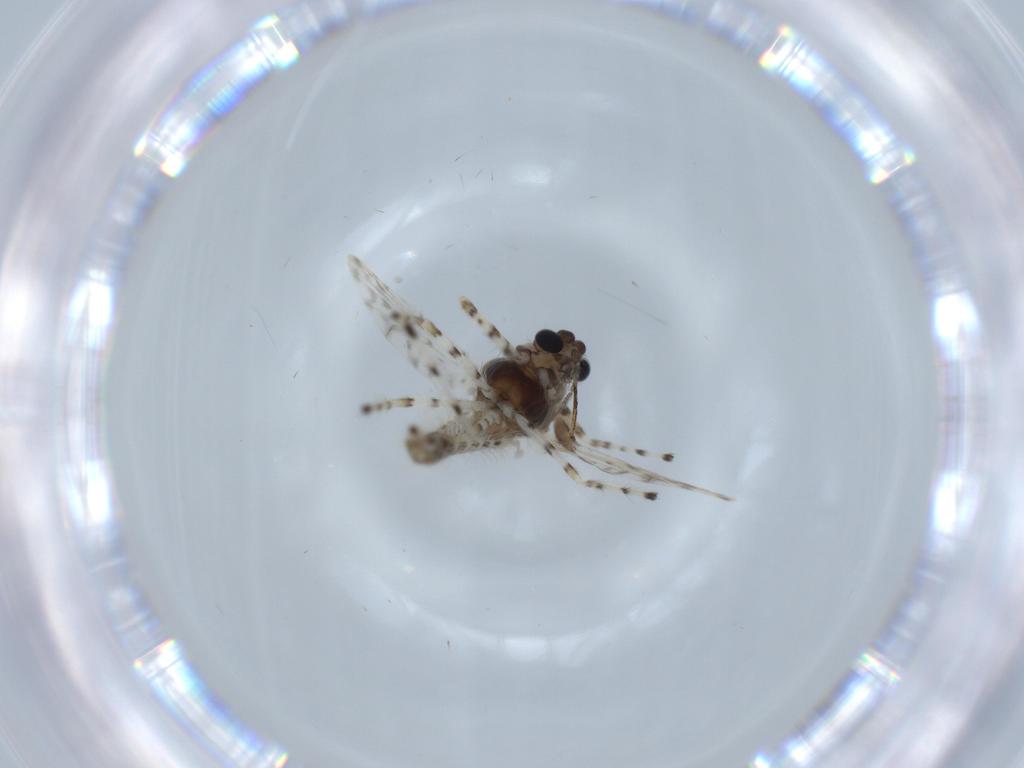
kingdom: Animalia
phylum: Arthropoda
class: Insecta
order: Diptera
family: Chironomidae
